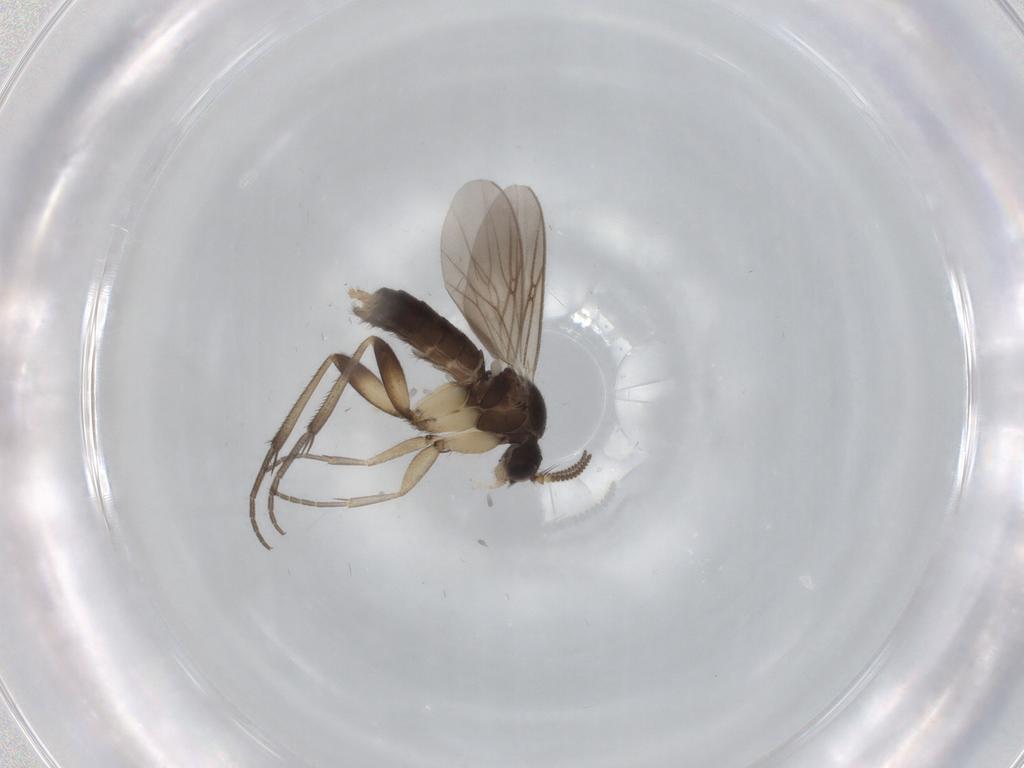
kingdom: Animalia
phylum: Arthropoda
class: Insecta
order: Diptera
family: Mycetophilidae
